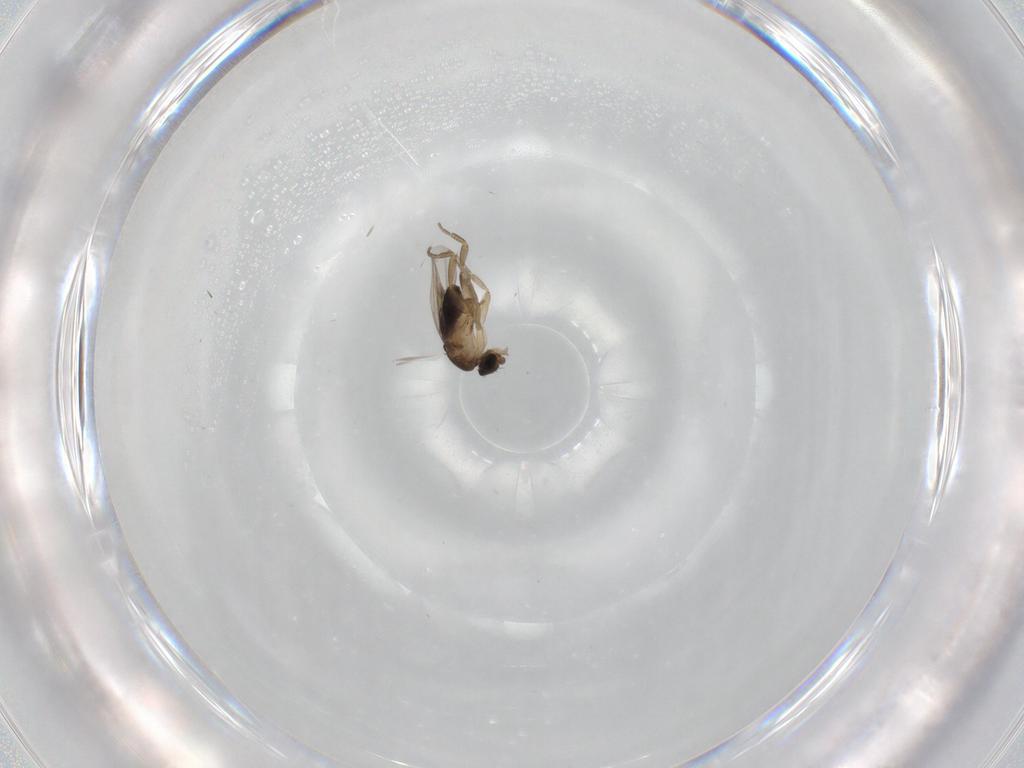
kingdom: Animalia
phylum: Arthropoda
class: Insecta
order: Diptera
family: Phoridae
